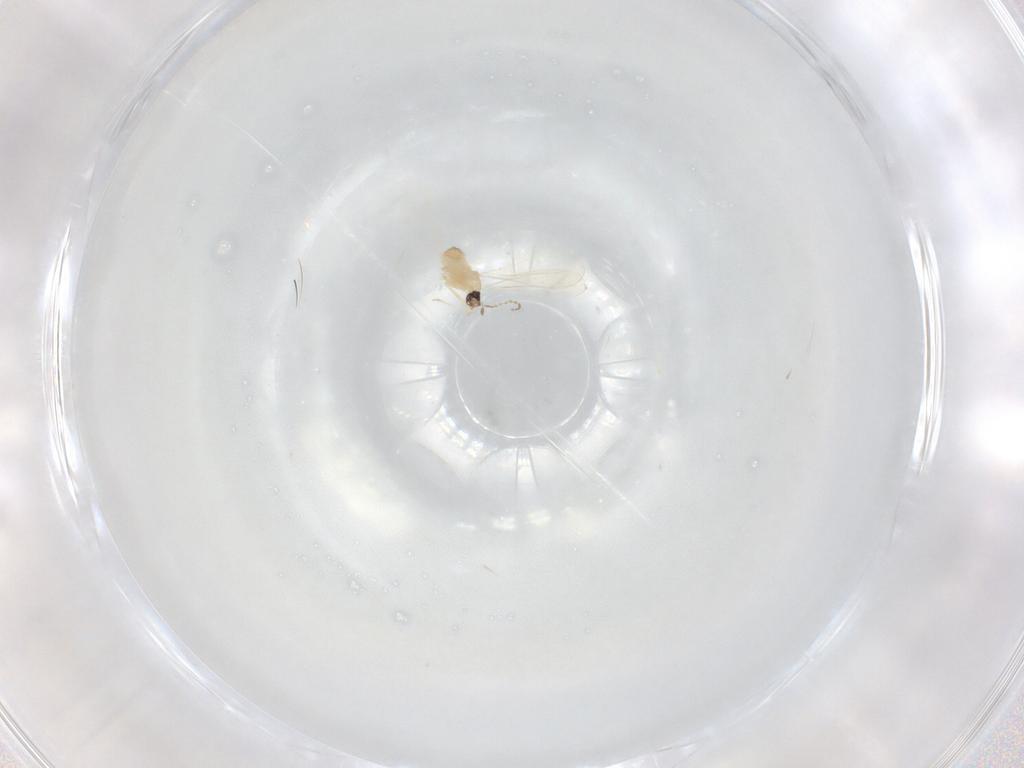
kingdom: Animalia
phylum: Arthropoda
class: Insecta
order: Diptera
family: Cecidomyiidae
